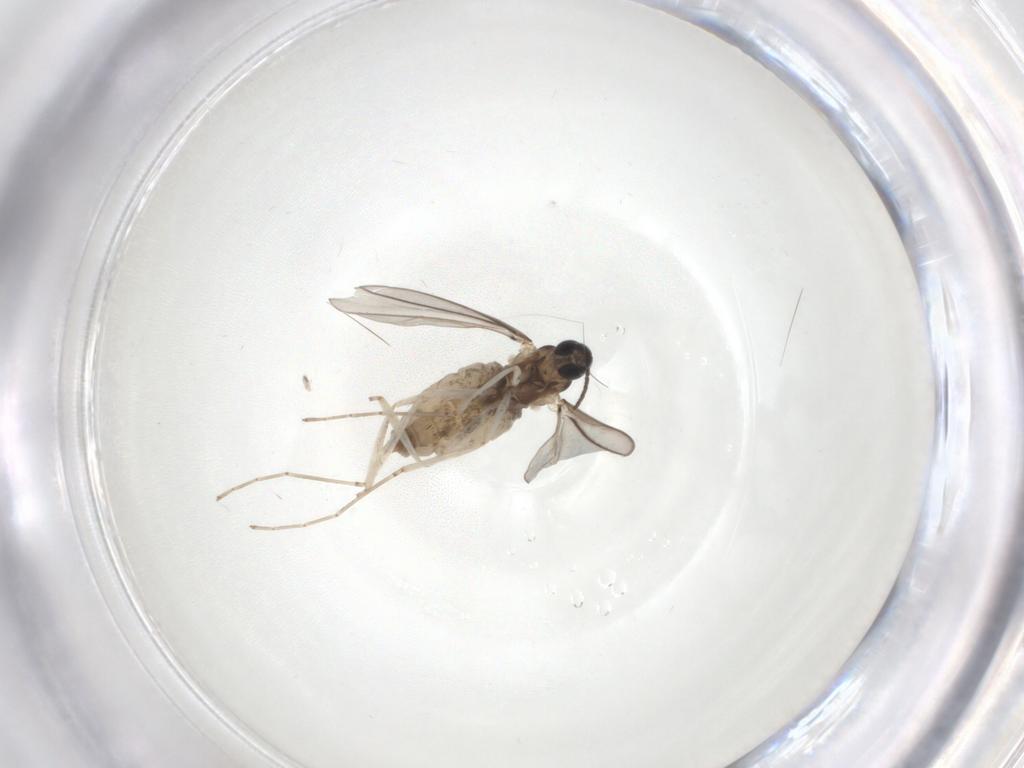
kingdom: Animalia
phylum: Arthropoda
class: Insecta
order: Diptera
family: Cecidomyiidae
